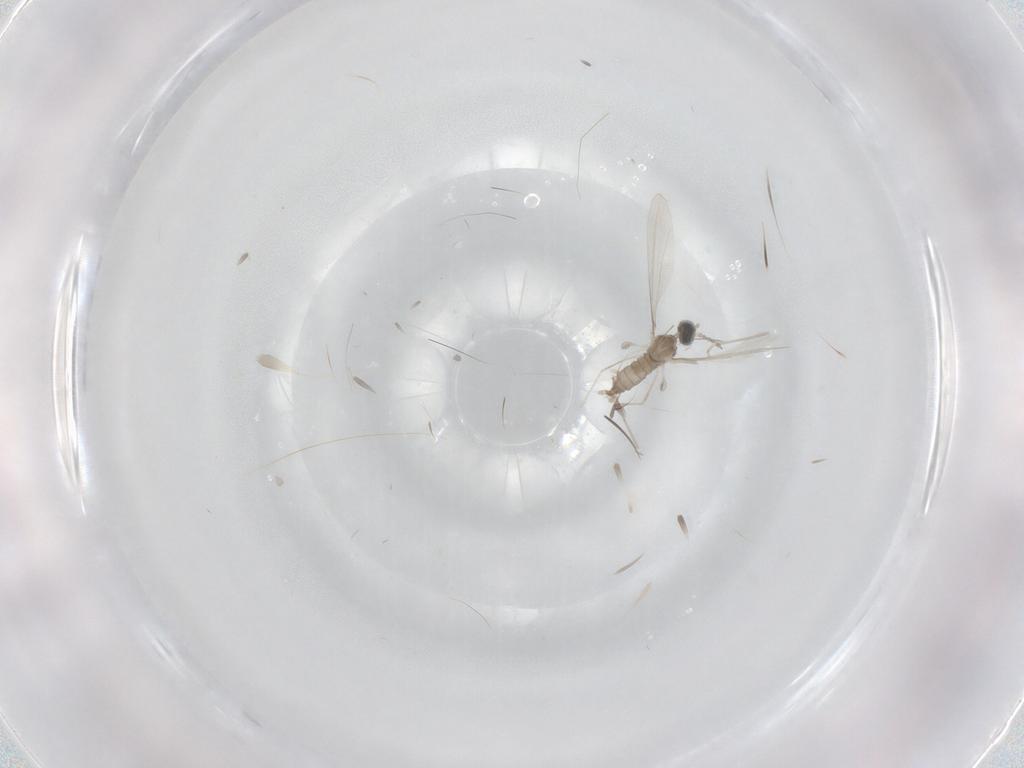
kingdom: Animalia
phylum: Arthropoda
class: Insecta
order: Diptera
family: Cecidomyiidae
